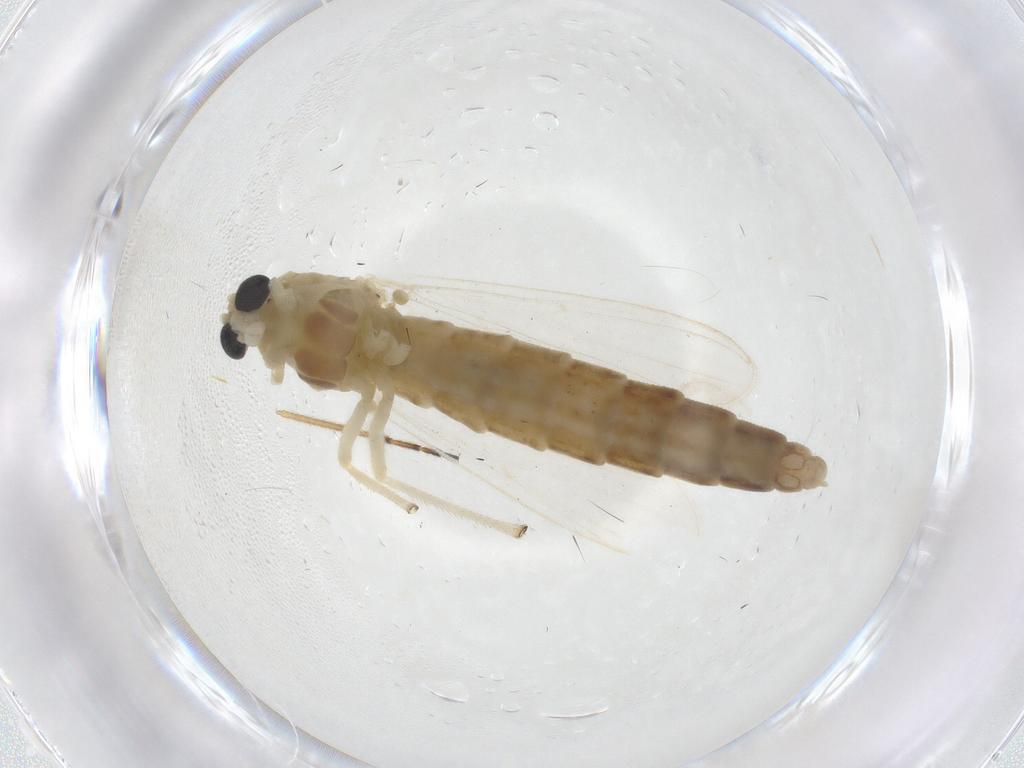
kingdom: Animalia
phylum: Arthropoda
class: Insecta
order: Diptera
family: Chironomidae
